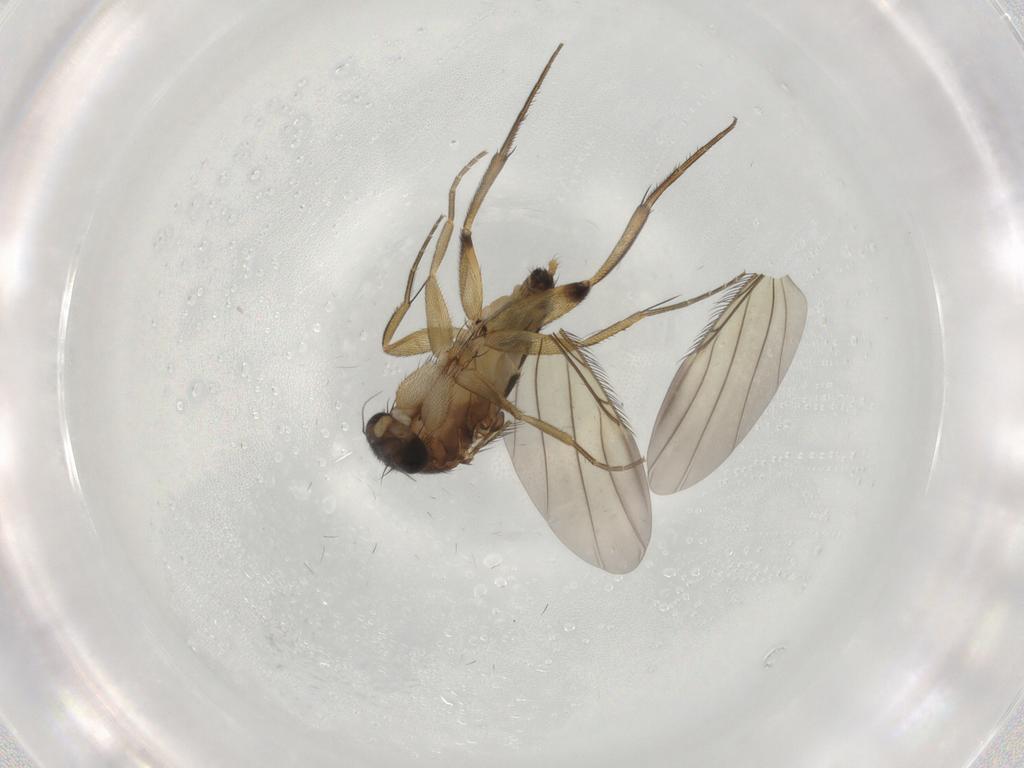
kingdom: Animalia
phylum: Arthropoda
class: Insecta
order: Diptera
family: Phoridae
